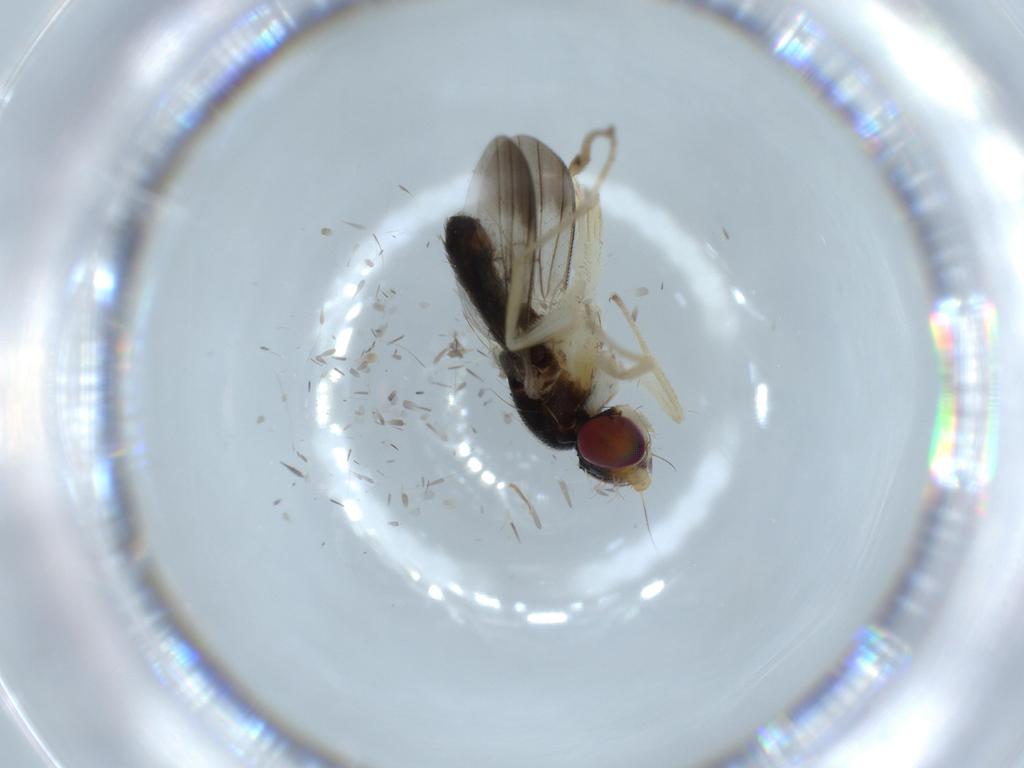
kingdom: Animalia
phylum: Arthropoda
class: Insecta
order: Diptera
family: Clusiidae
